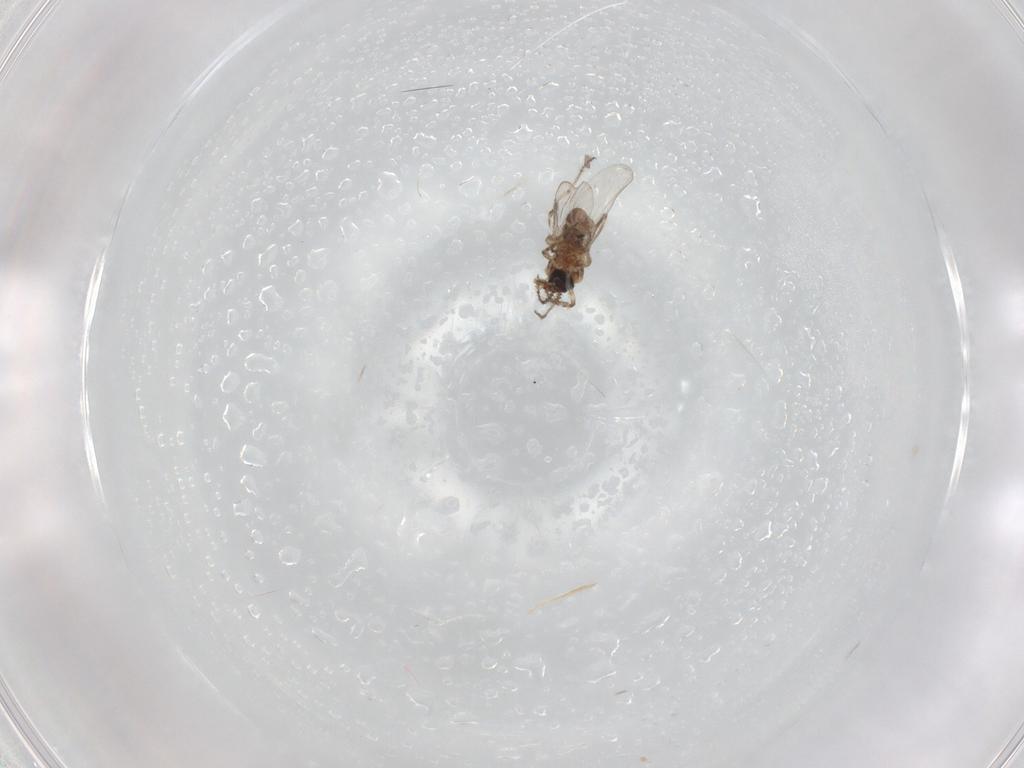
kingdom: Animalia
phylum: Arthropoda
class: Insecta
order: Diptera
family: Ceratopogonidae
